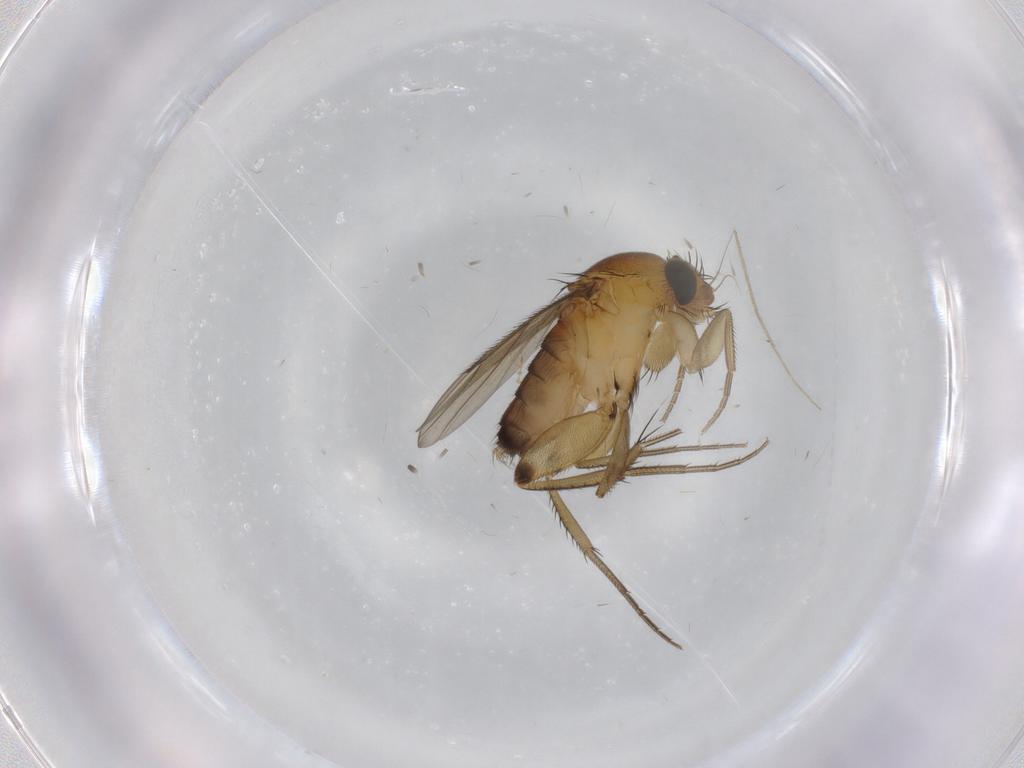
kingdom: Animalia
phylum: Arthropoda
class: Insecta
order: Diptera
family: Phoridae
